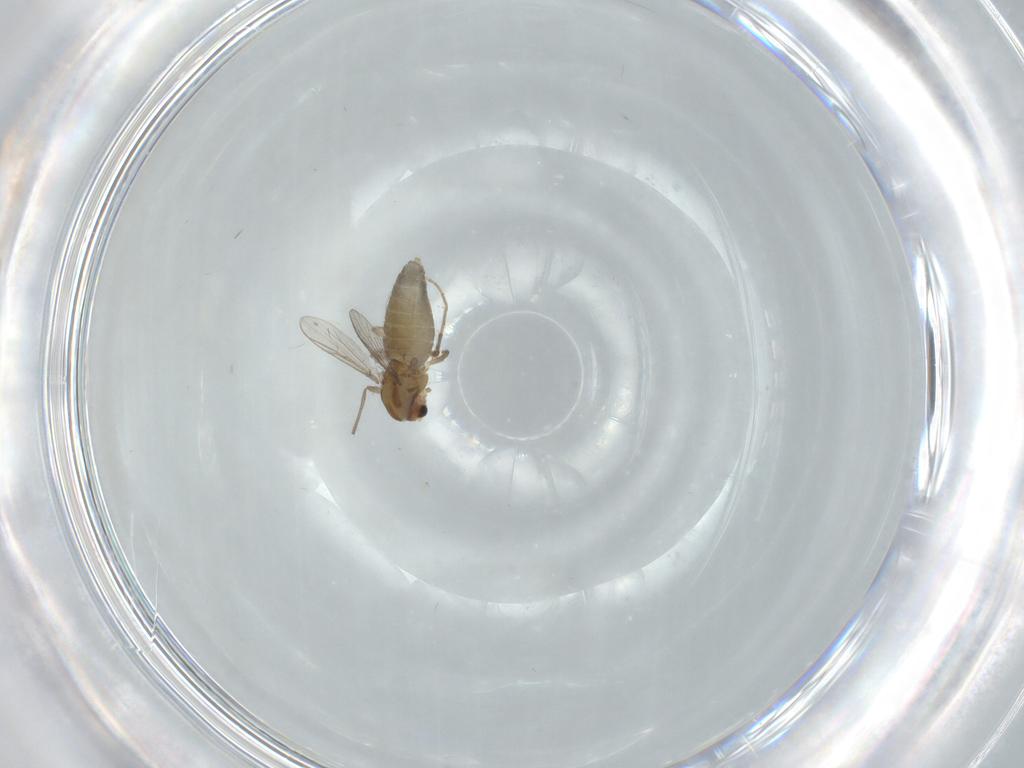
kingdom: Animalia
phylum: Arthropoda
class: Insecta
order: Diptera
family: Chironomidae
